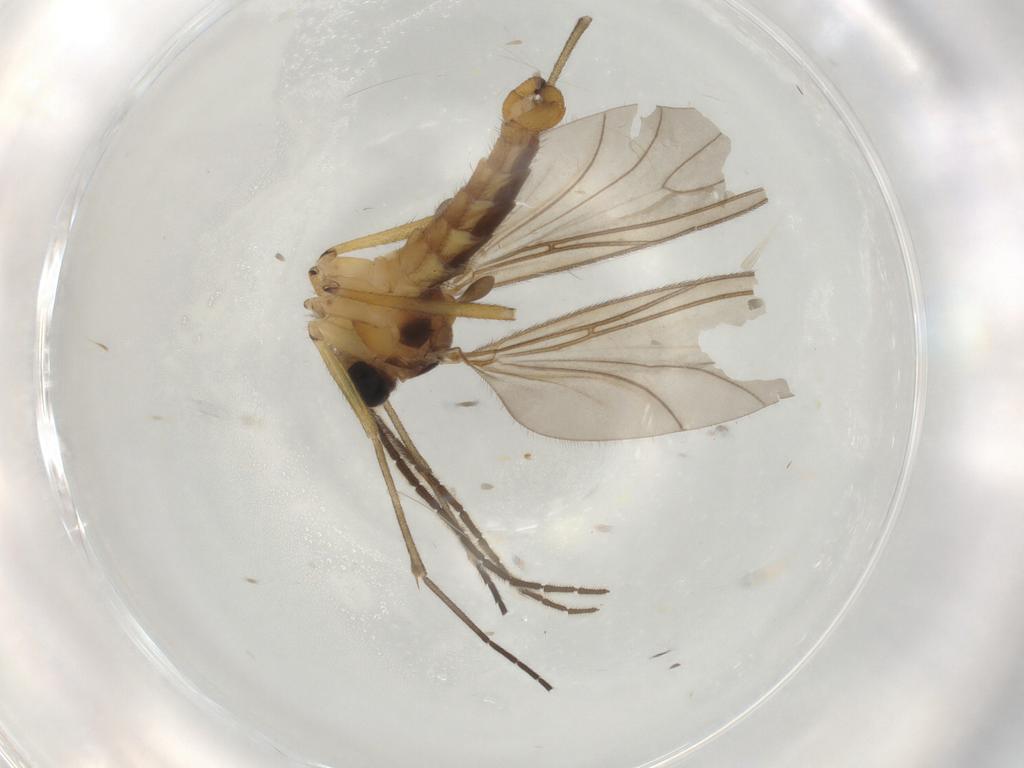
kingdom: Animalia
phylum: Arthropoda
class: Insecta
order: Diptera
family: Sciaridae
